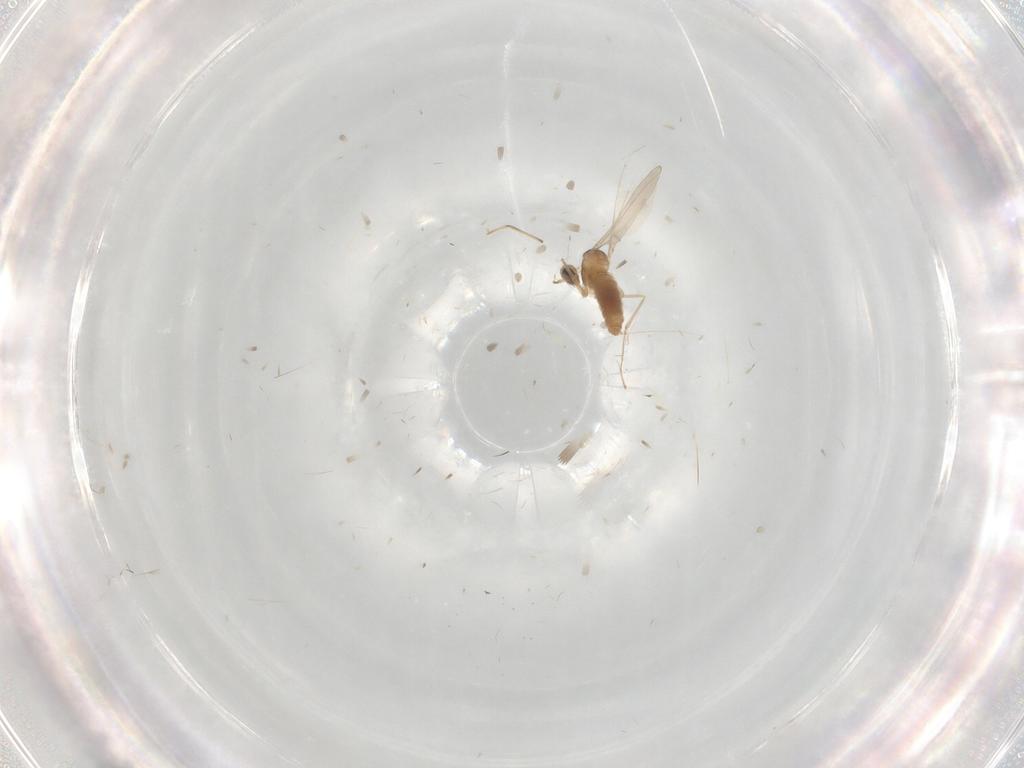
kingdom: Animalia
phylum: Arthropoda
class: Insecta
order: Diptera
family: Cecidomyiidae
